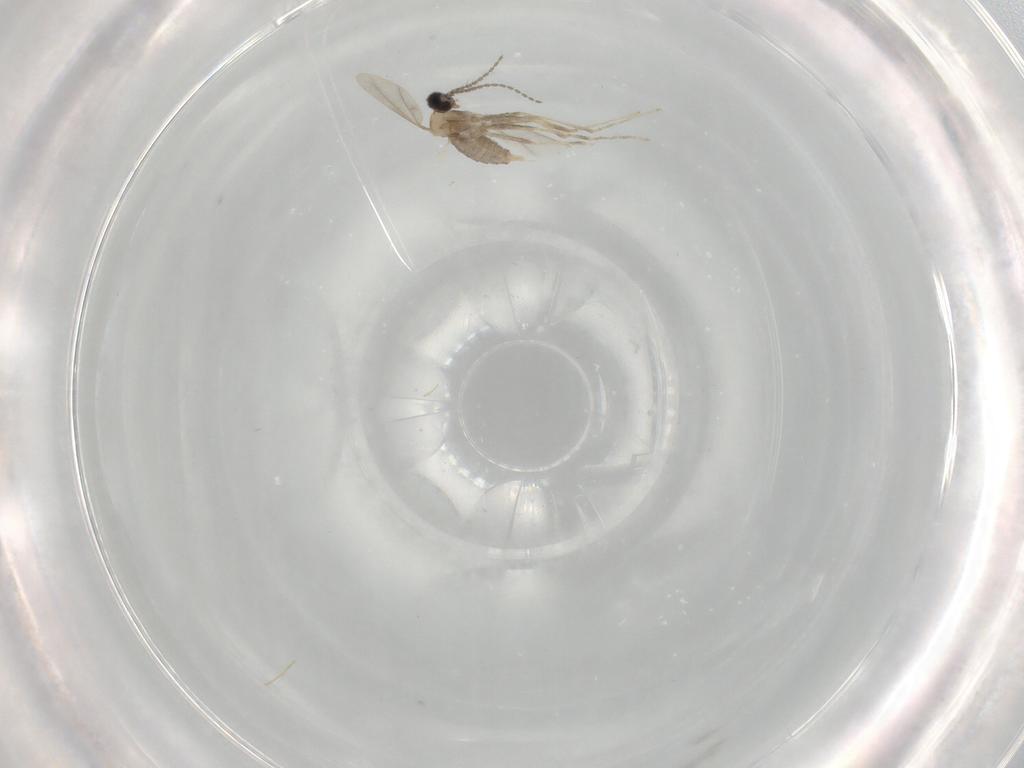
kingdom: Animalia
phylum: Arthropoda
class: Insecta
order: Diptera
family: Cecidomyiidae
